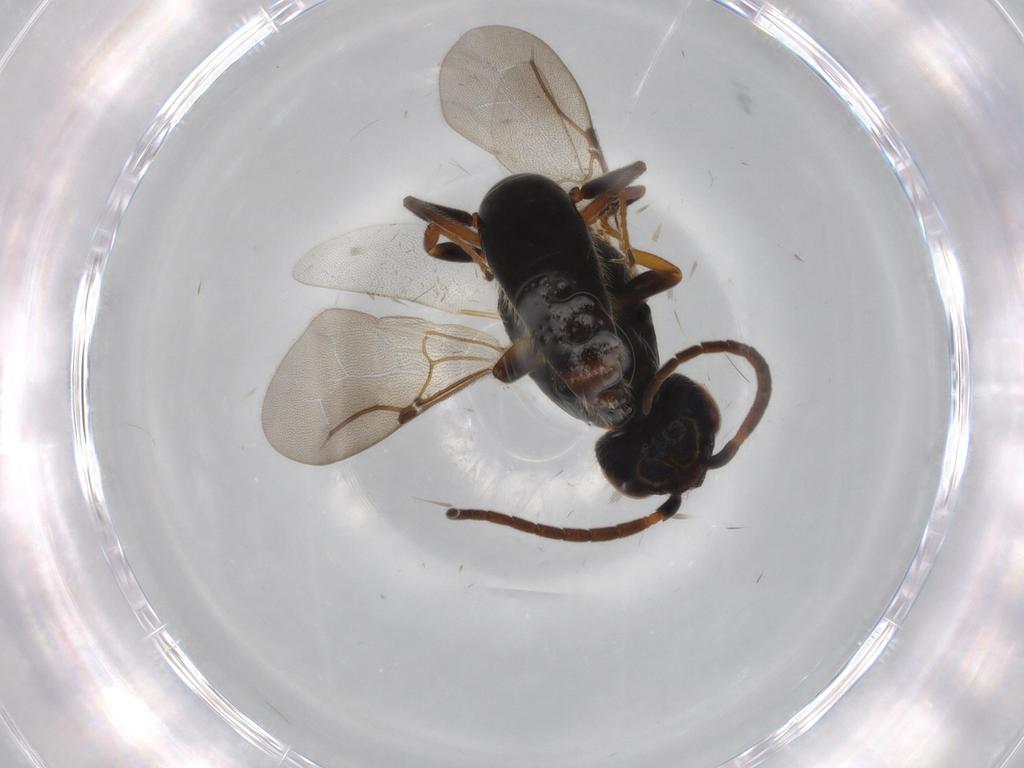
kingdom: Animalia
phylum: Arthropoda
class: Insecta
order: Hymenoptera
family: Bethylidae
